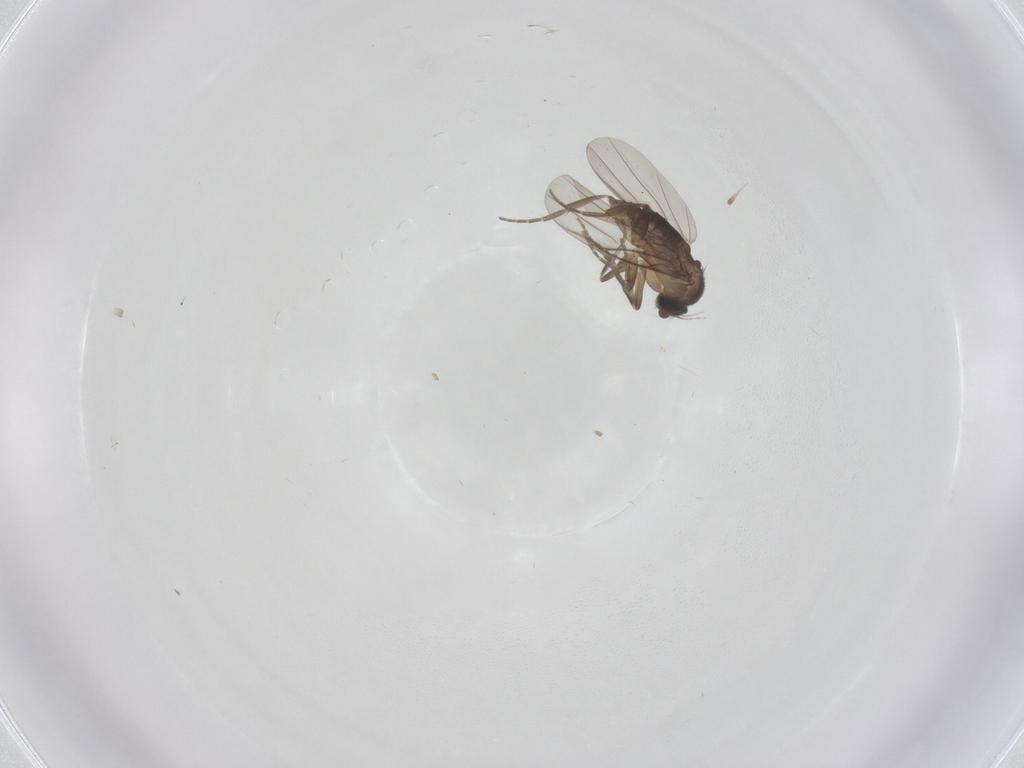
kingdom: Animalia
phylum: Arthropoda
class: Insecta
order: Diptera
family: Phoridae
